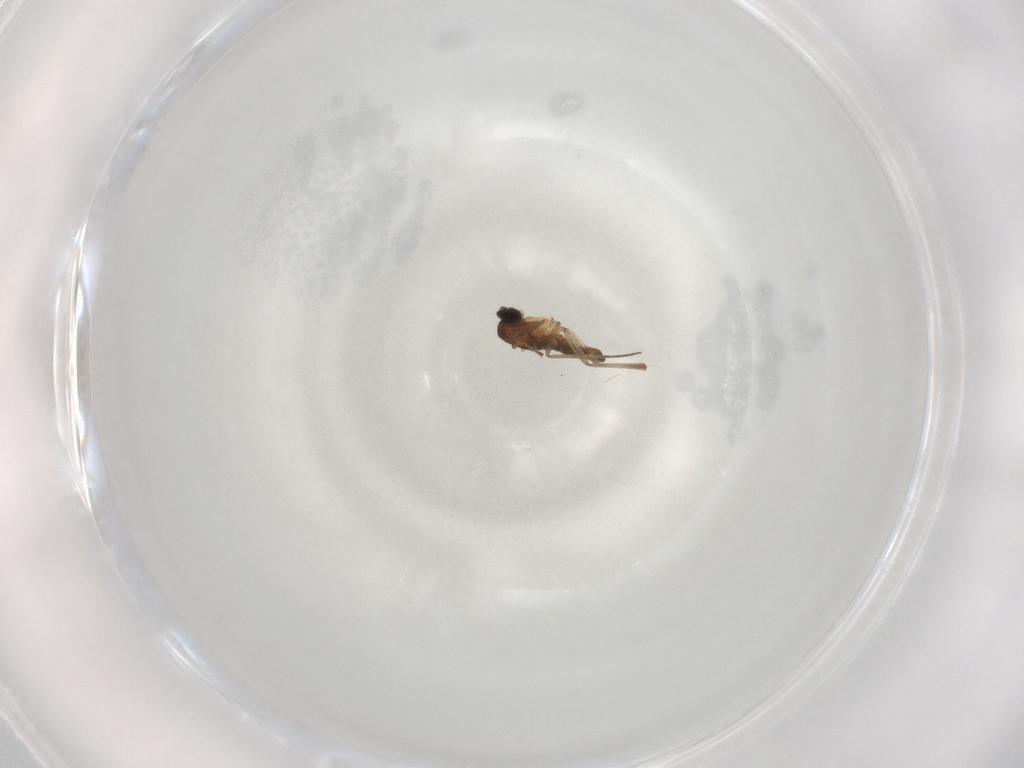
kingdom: Animalia
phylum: Arthropoda
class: Insecta
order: Diptera
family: Sciaridae
